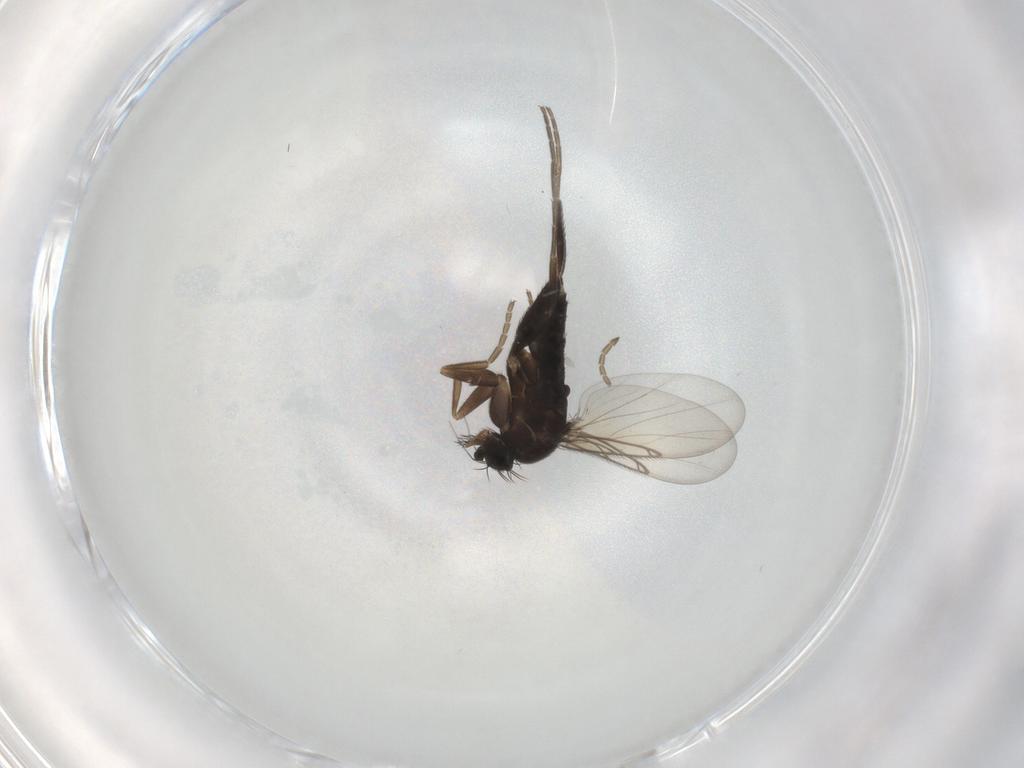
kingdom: Animalia
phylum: Arthropoda
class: Insecta
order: Diptera
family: Phoridae
